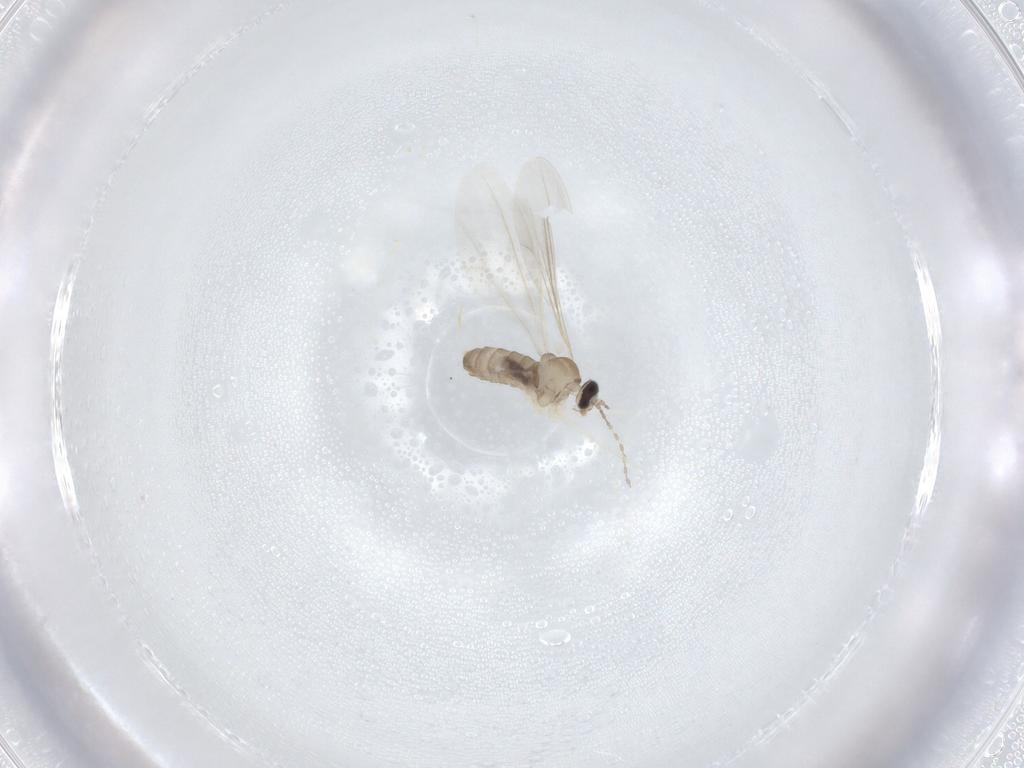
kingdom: Animalia
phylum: Arthropoda
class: Insecta
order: Diptera
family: Cecidomyiidae
